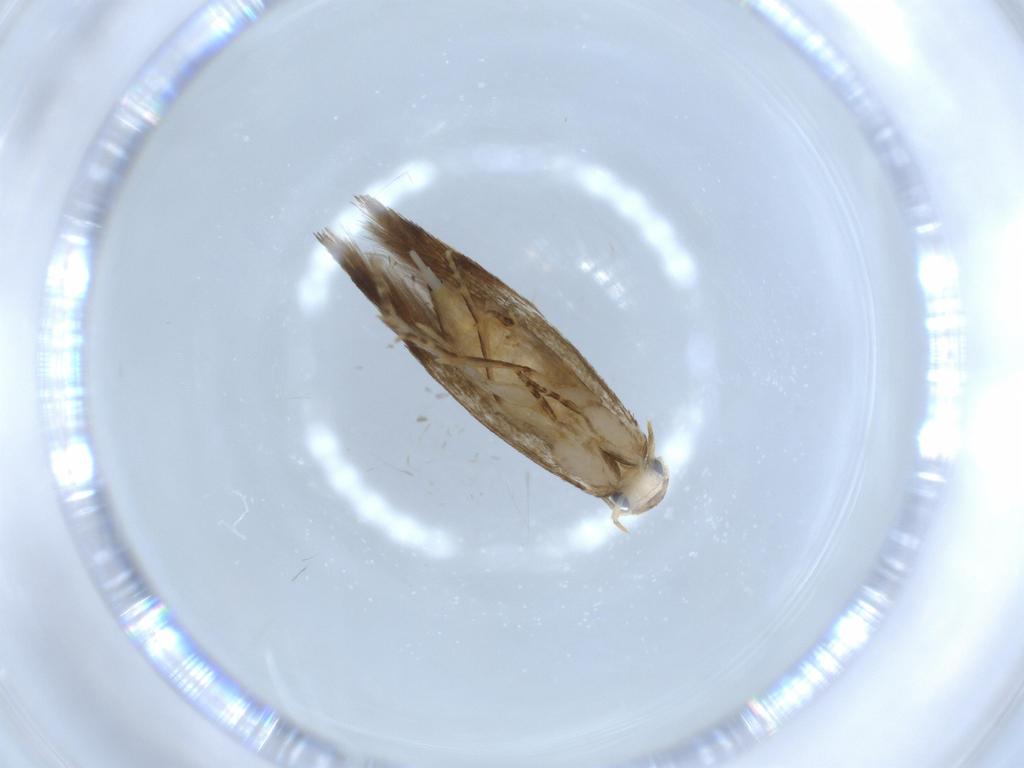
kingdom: Animalia
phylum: Arthropoda
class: Insecta
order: Lepidoptera
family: Tineidae
